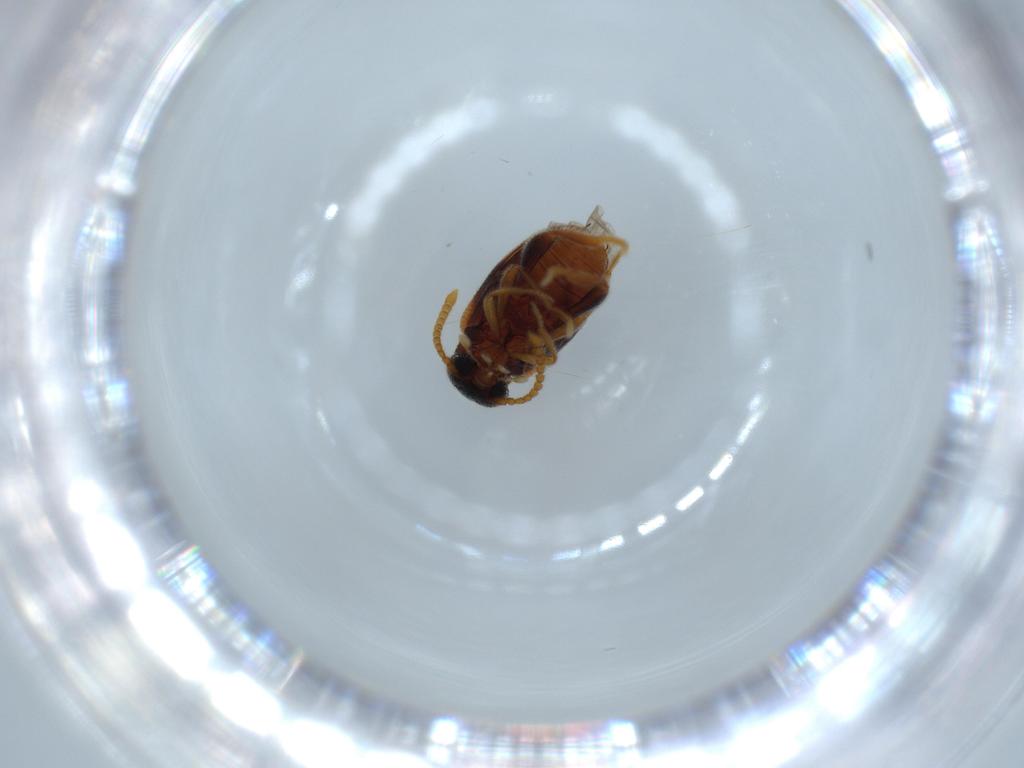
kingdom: Animalia
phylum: Arthropoda
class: Insecta
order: Coleoptera
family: Aderidae
